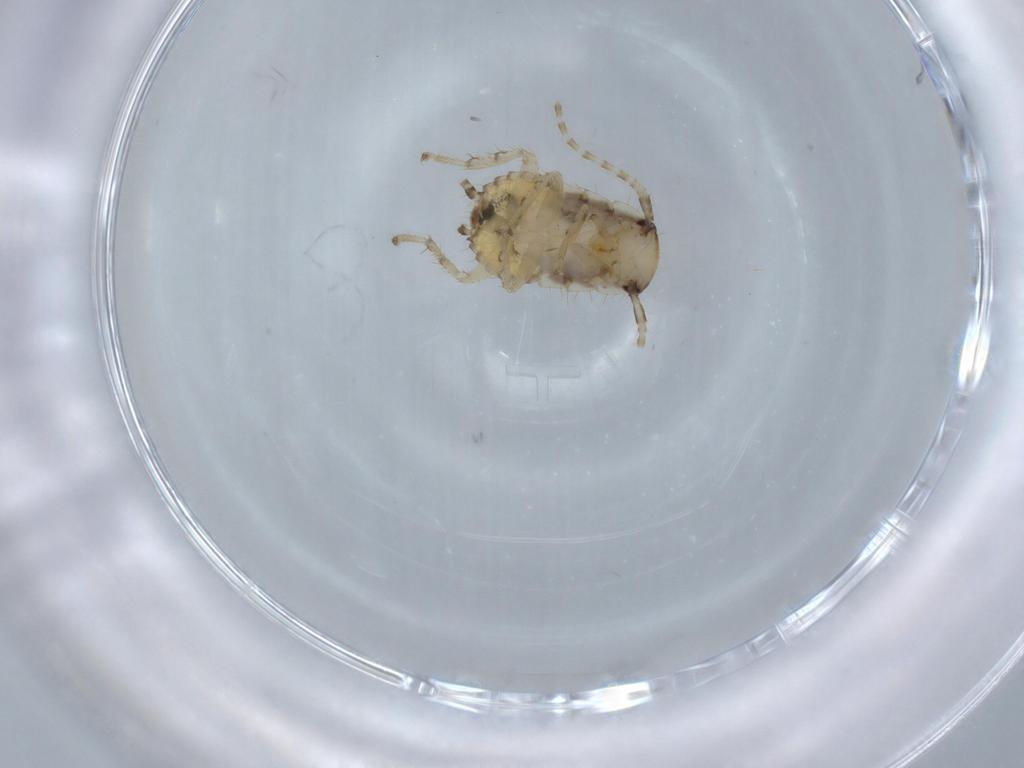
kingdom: Animalia
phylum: Arthropoda
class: Insecta
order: Blattodea
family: Ectobiidae
